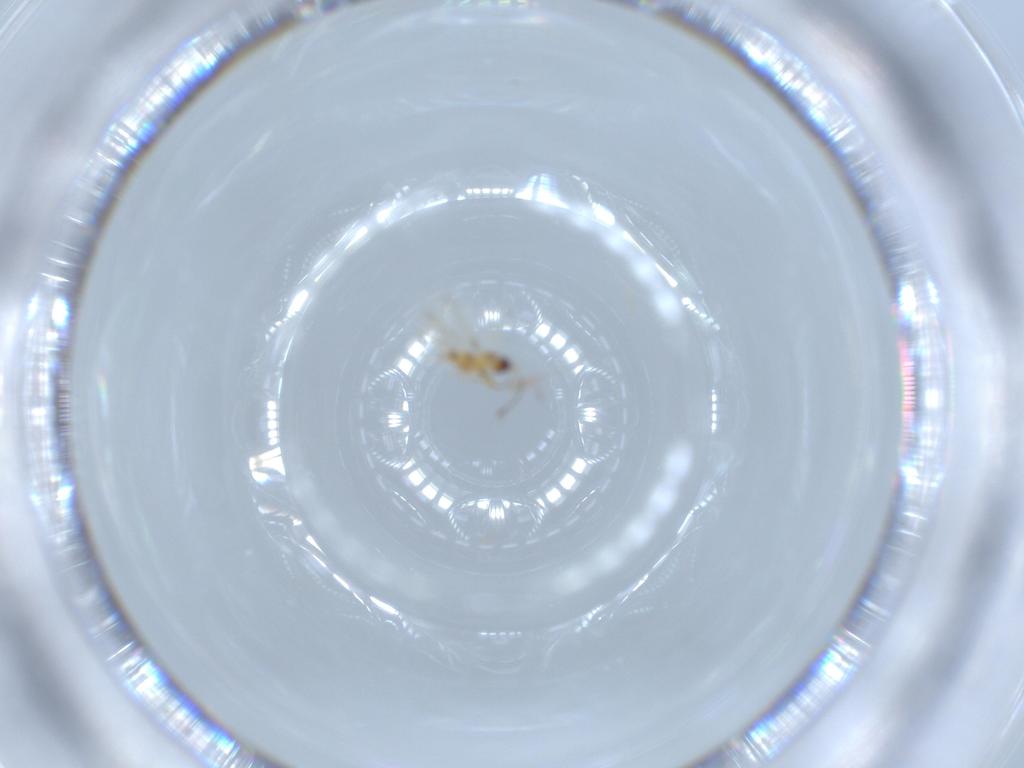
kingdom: Animalia
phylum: Arthropoda
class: Insecta
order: Hymenoptera
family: Mymaridae
